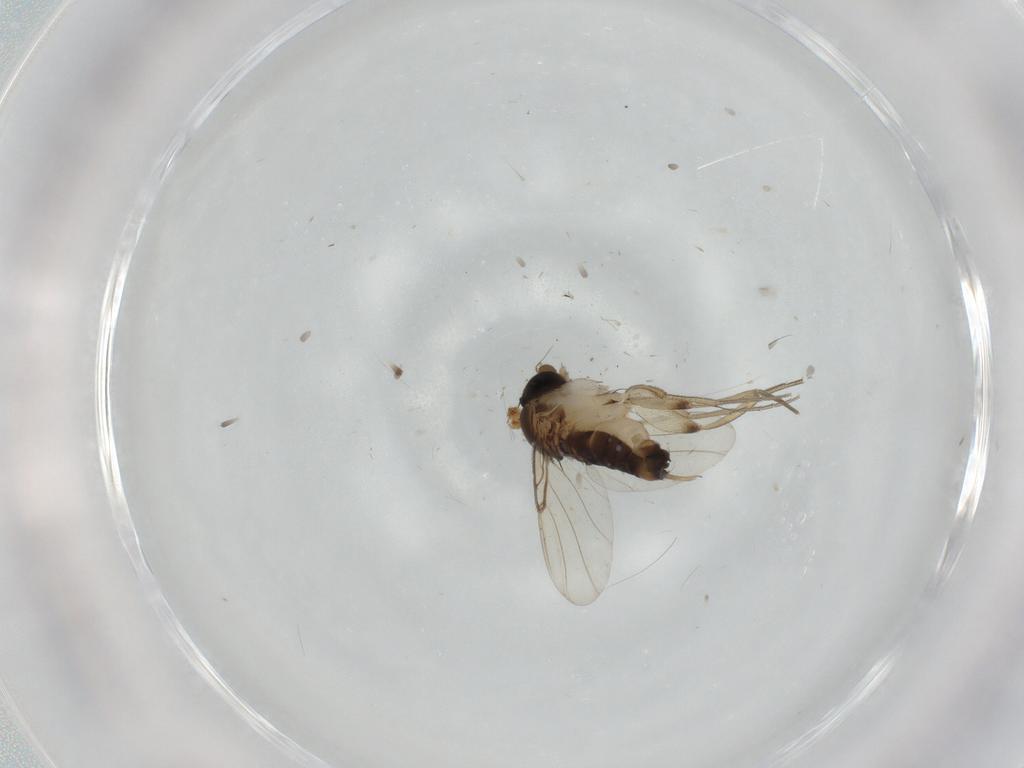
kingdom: Animalia
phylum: Arthropoda
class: Insecta
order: Diptera
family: Phoridae
